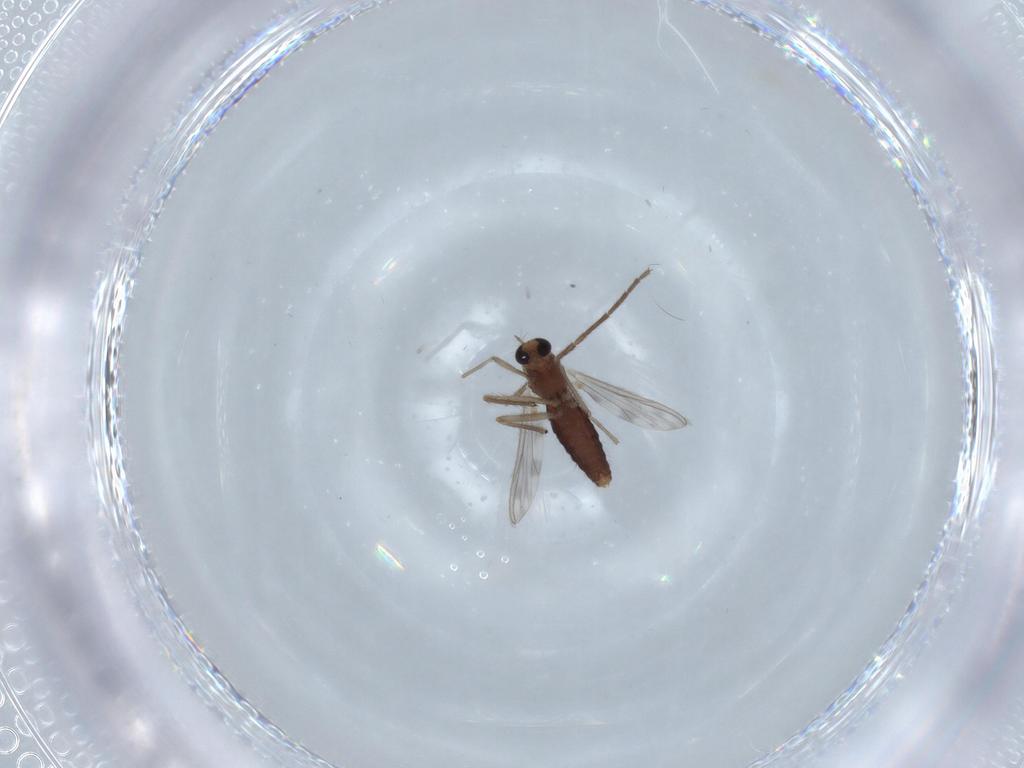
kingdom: Animalia
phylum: Arthropoda
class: Insecta
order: Diptera
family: Chironomidae
